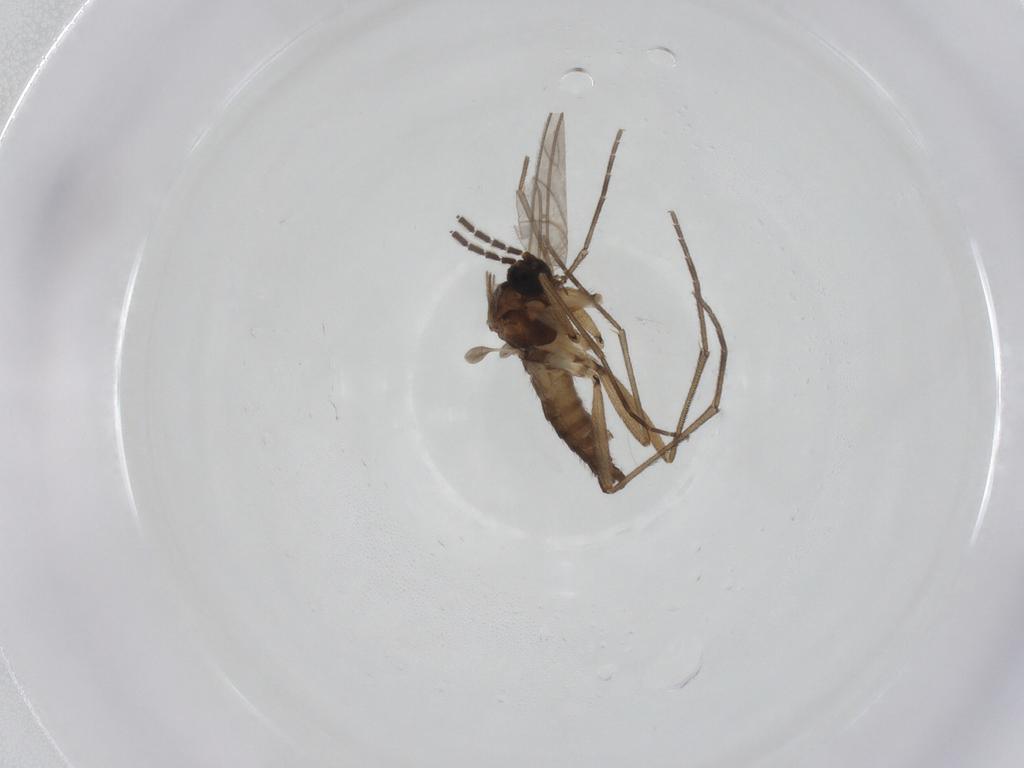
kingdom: Animalia
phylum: Arthropoda
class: Insecta
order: Diptera
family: Sciaridae
